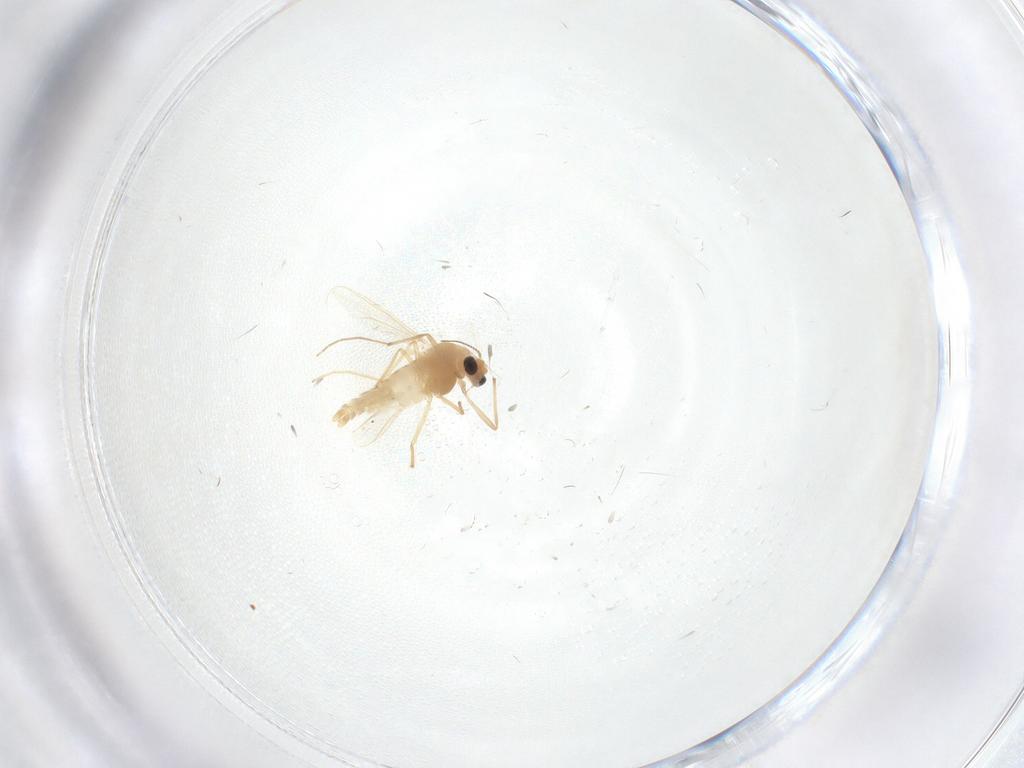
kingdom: Animalia
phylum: Arthropoda
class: Insecta
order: Diptera
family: Chironomidae
